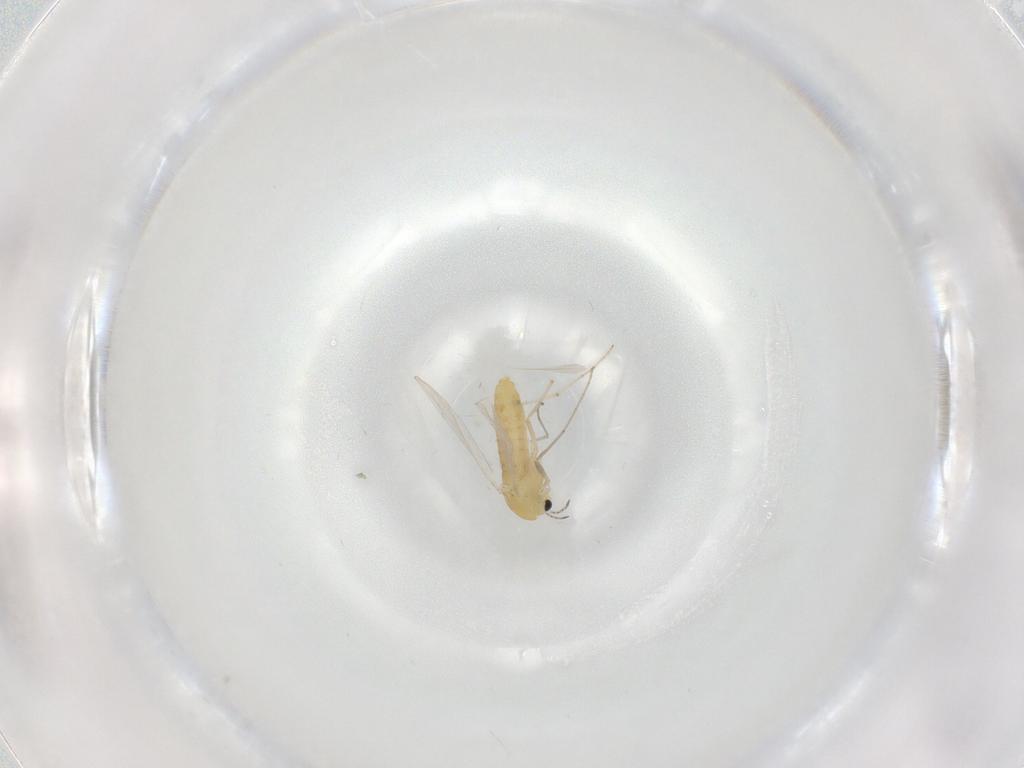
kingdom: Animalia
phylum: Arthropoda
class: Insecta
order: Diptera
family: Chironomidae
